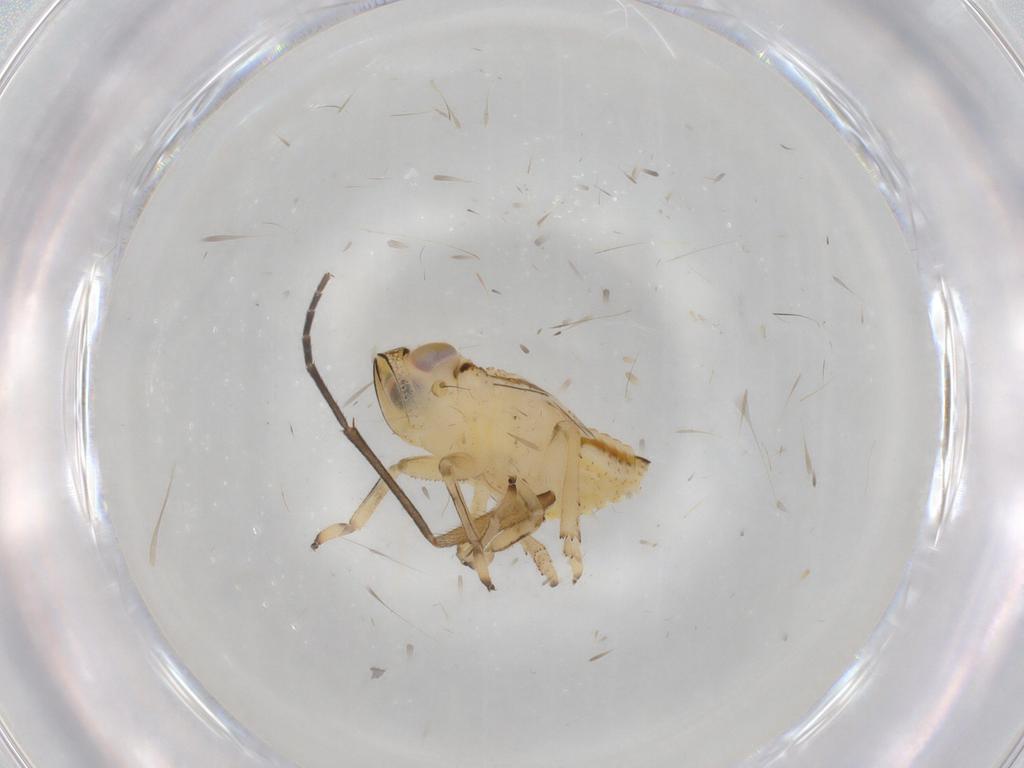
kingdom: Animalia
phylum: Arthropoda
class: Insecta
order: Hemiptera
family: Issidae
